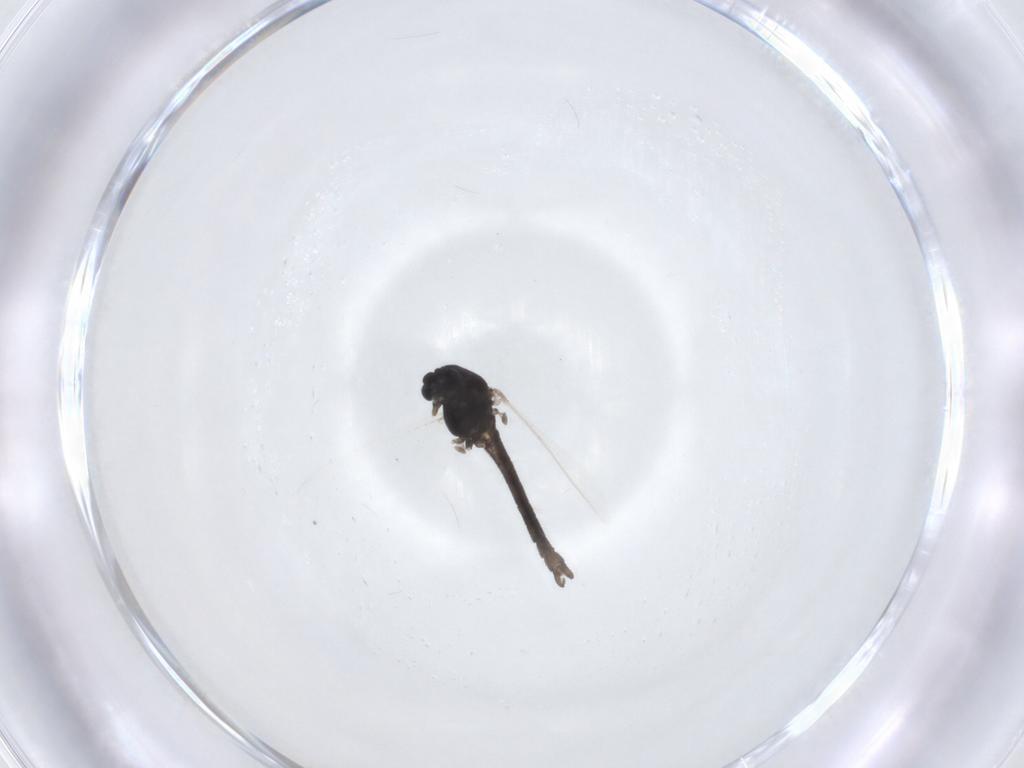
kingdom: Animalia
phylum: Arthropoda
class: Insecta
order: Diptera
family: Chironomidae
